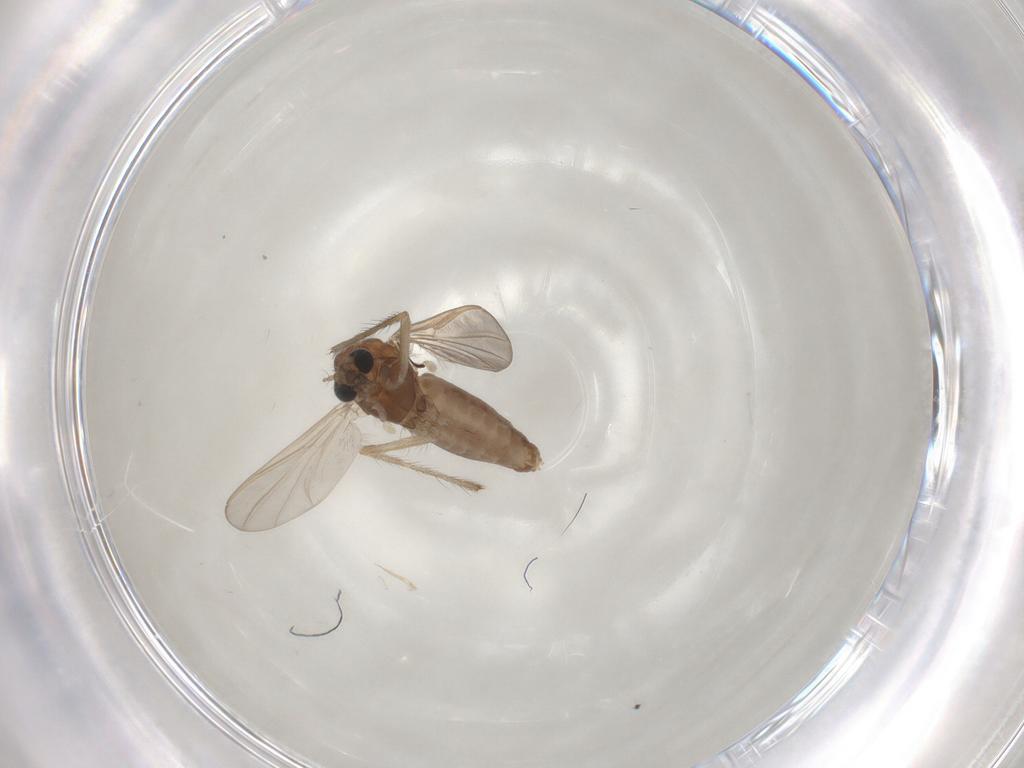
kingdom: Animalia
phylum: Arthropoda
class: Insecta
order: Diptera
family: Chironomidae
